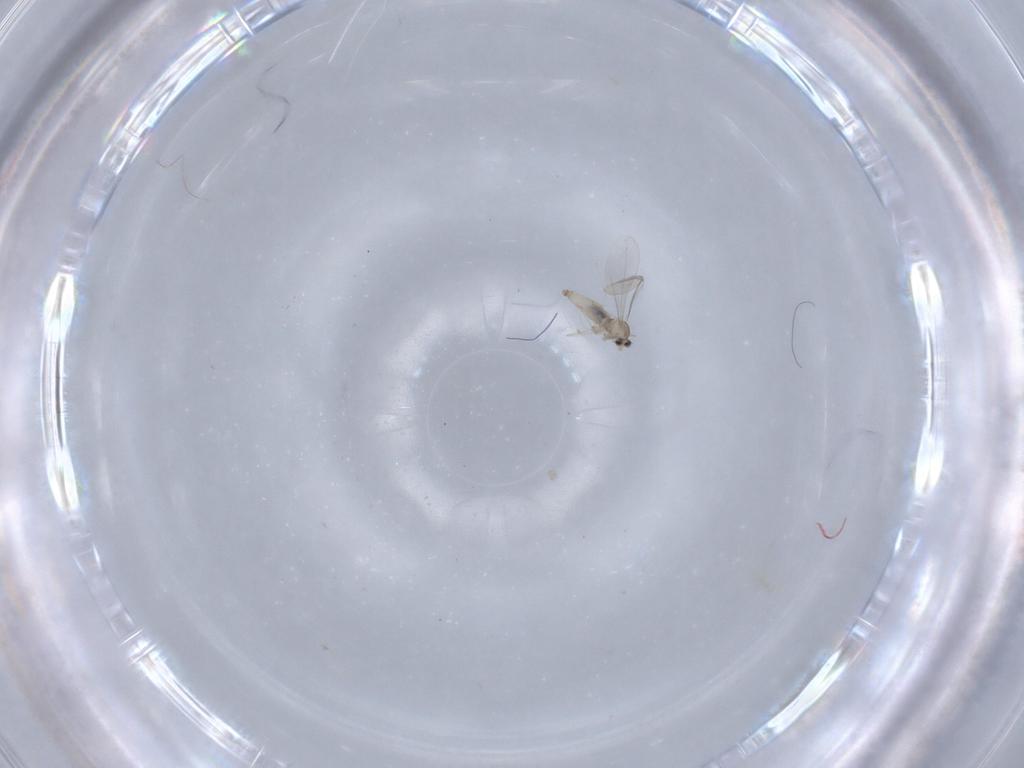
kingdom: Animalia
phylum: Arthropoda
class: Insecta
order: Diptera
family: Cecidomyiidae
